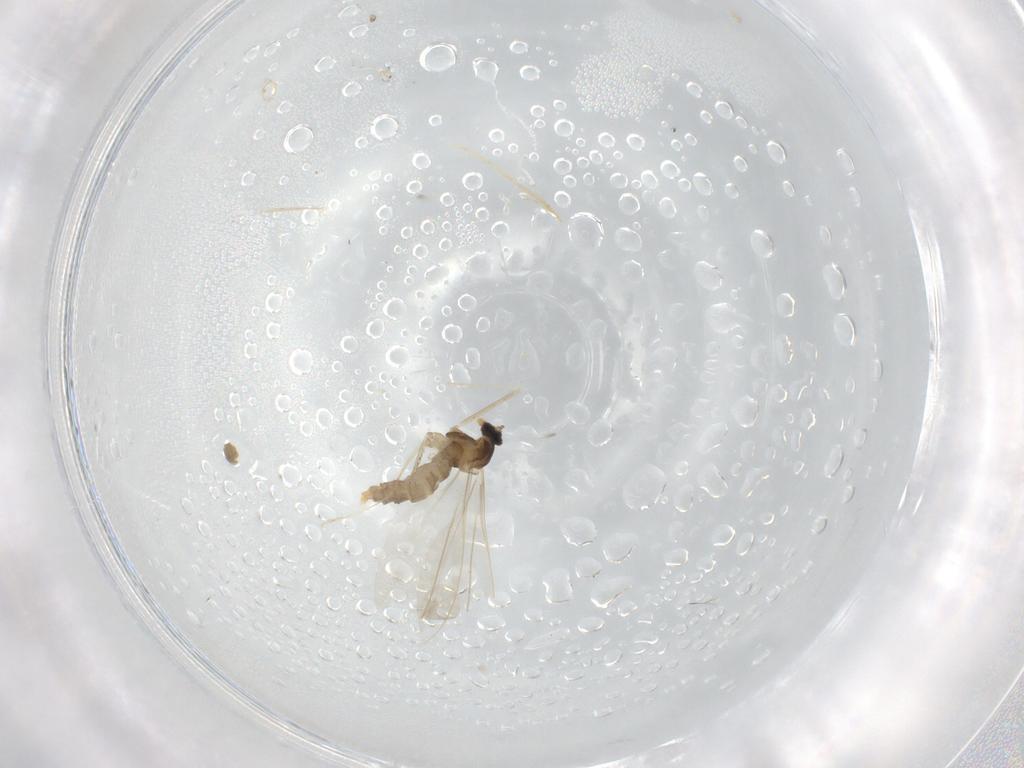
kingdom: Animalia
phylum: Arthropoda
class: Insecta
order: Diptera
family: Cecidomyiidae
